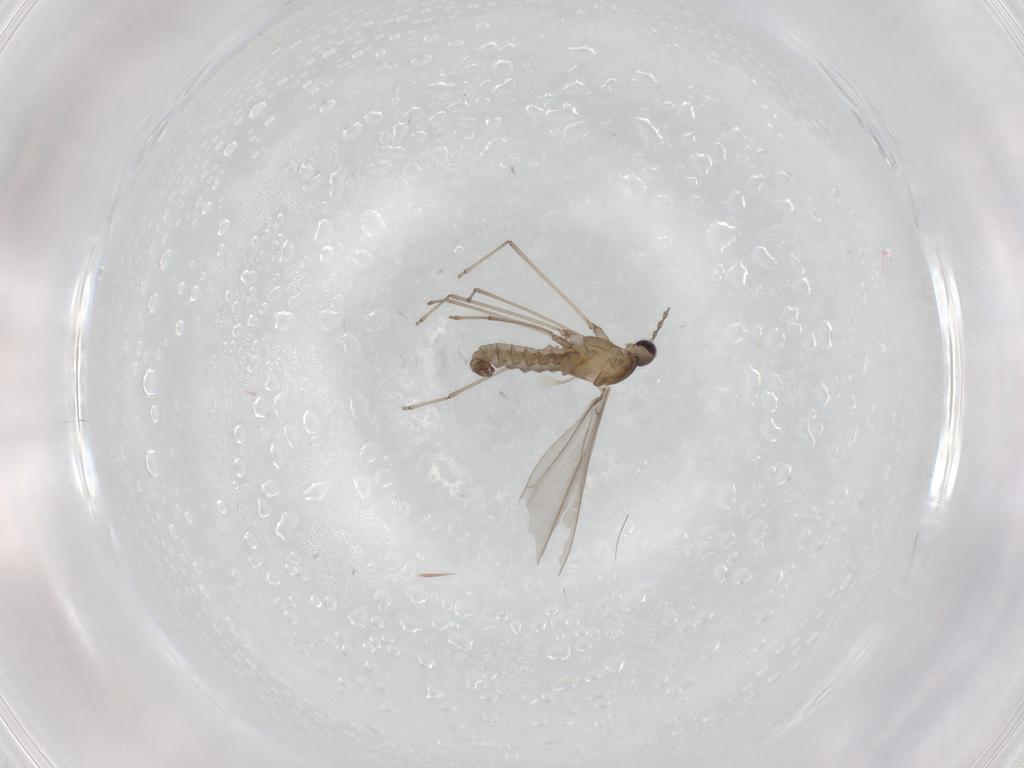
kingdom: Animalia
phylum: Arthropoda
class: Insecta
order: Diptera
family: Cecidomyiidae
